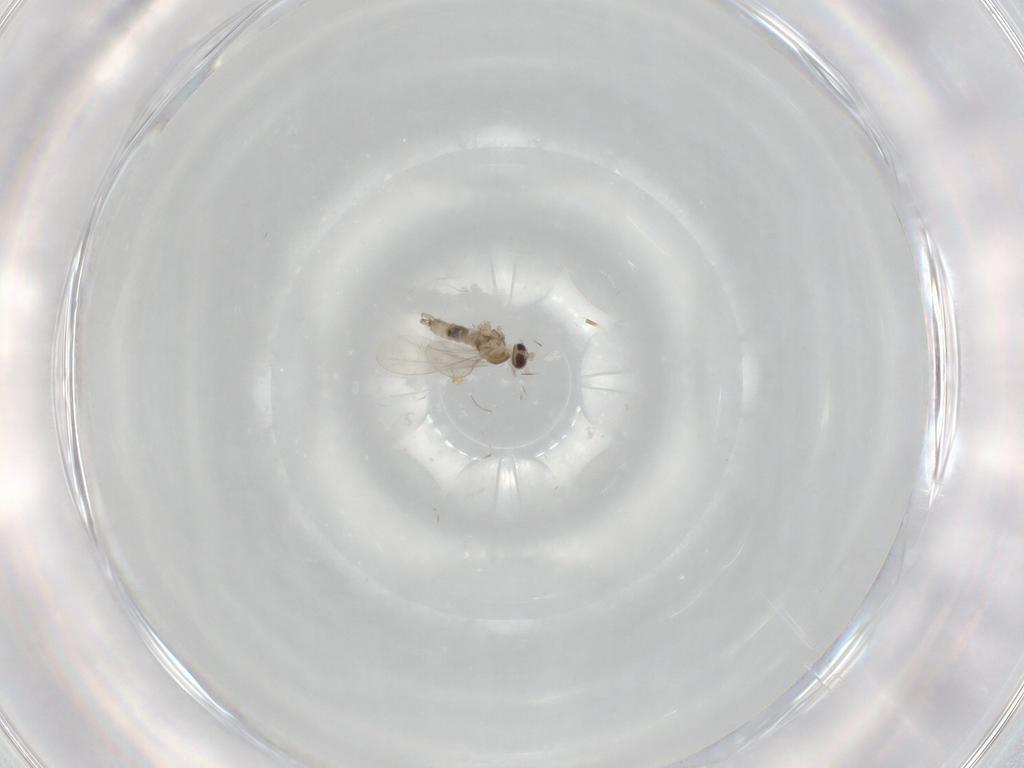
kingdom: Animalia
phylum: Arthropoda
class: Insecta
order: Diptera
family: Cecidomyiidae
